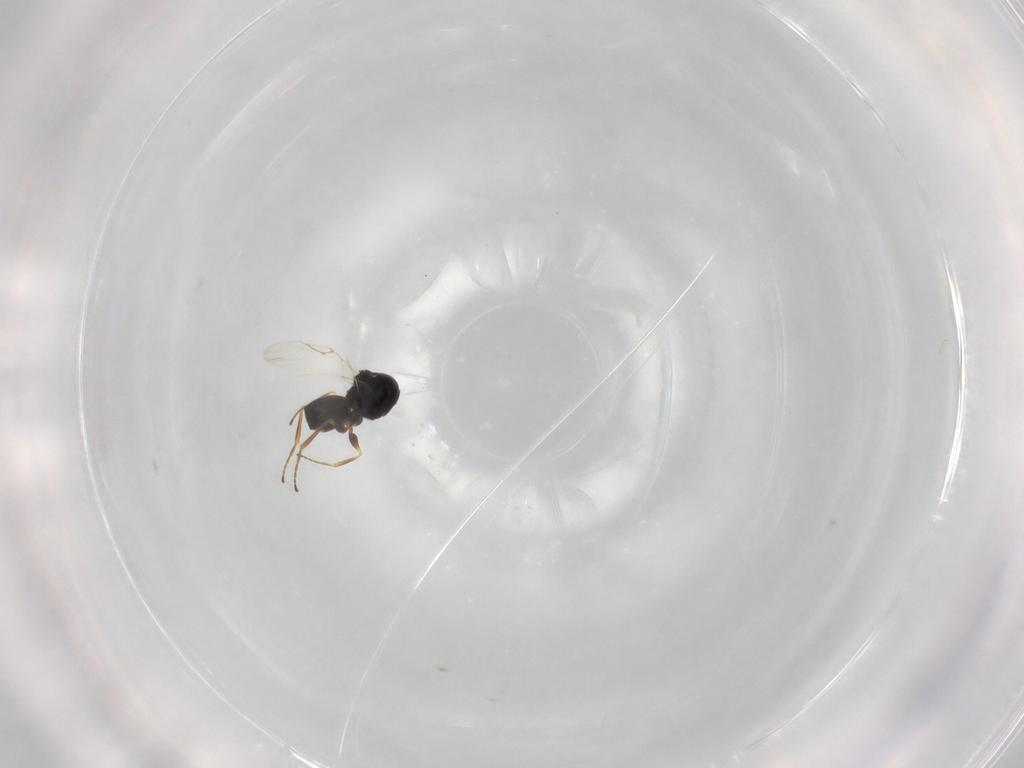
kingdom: Animalia
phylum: Arthropoda
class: Insecta
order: Hymenoptera
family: Figitidae
